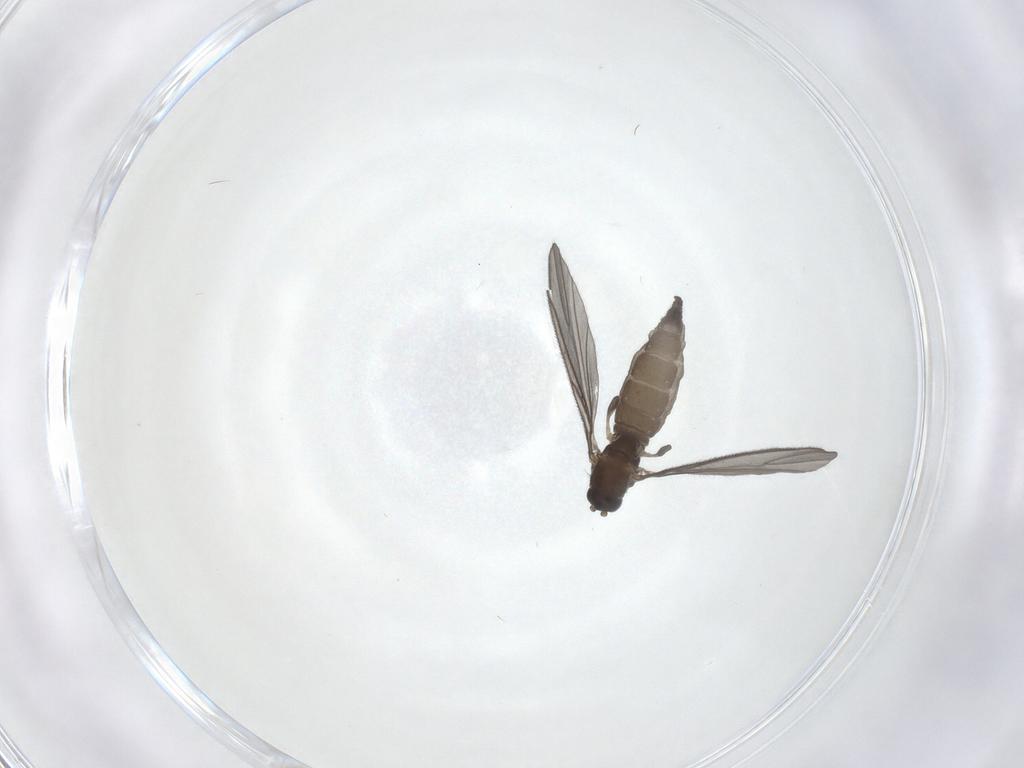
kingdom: Animalia
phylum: Arthropoda
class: Insecta
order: Diptera
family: Sciaridae
